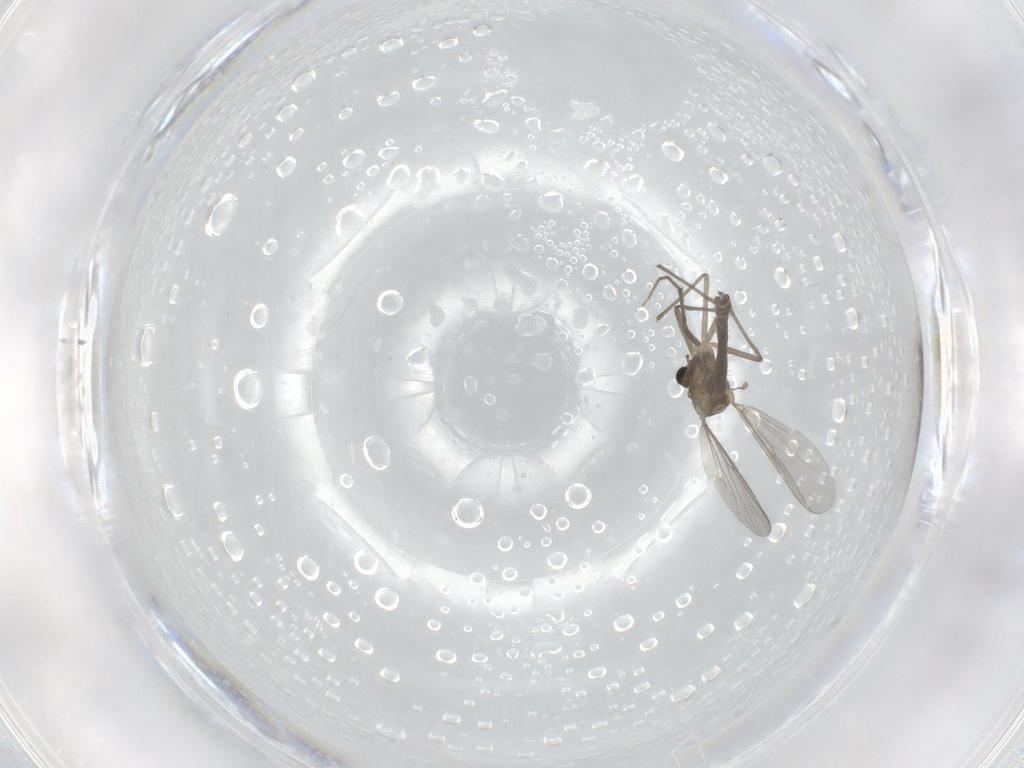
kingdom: Animalia
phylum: Arthropoda
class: Insecta
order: Diptera
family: Chironomidae
